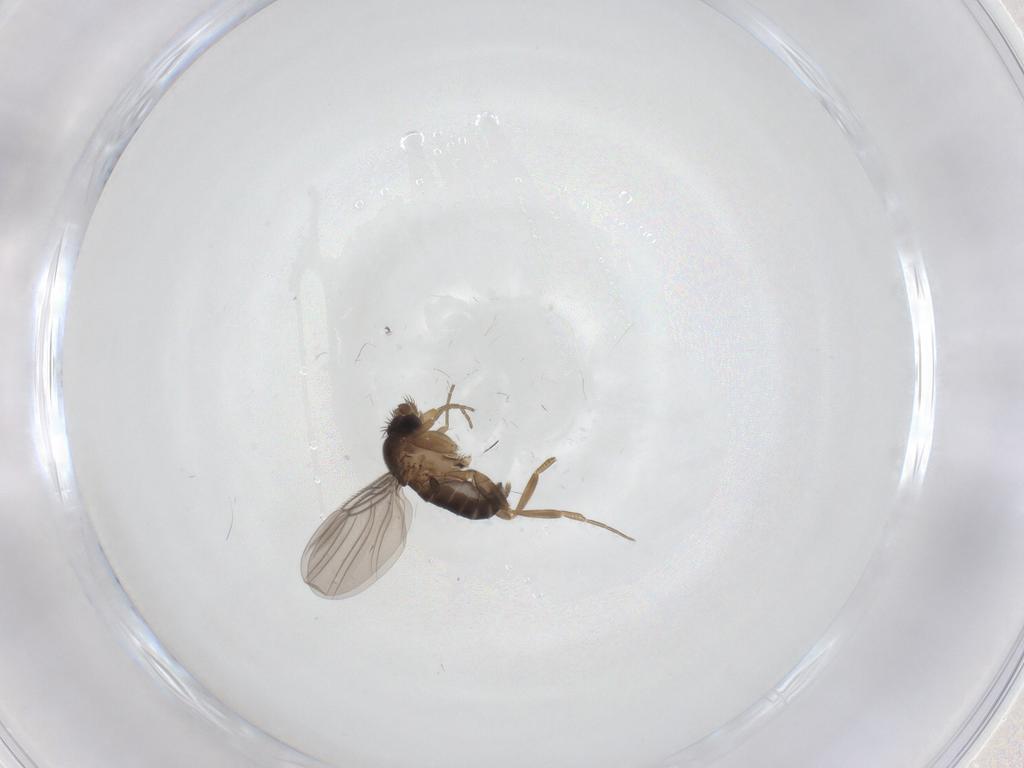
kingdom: Animalia
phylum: Arthropoda
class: Insecta
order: Diptera
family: Chironomidae
